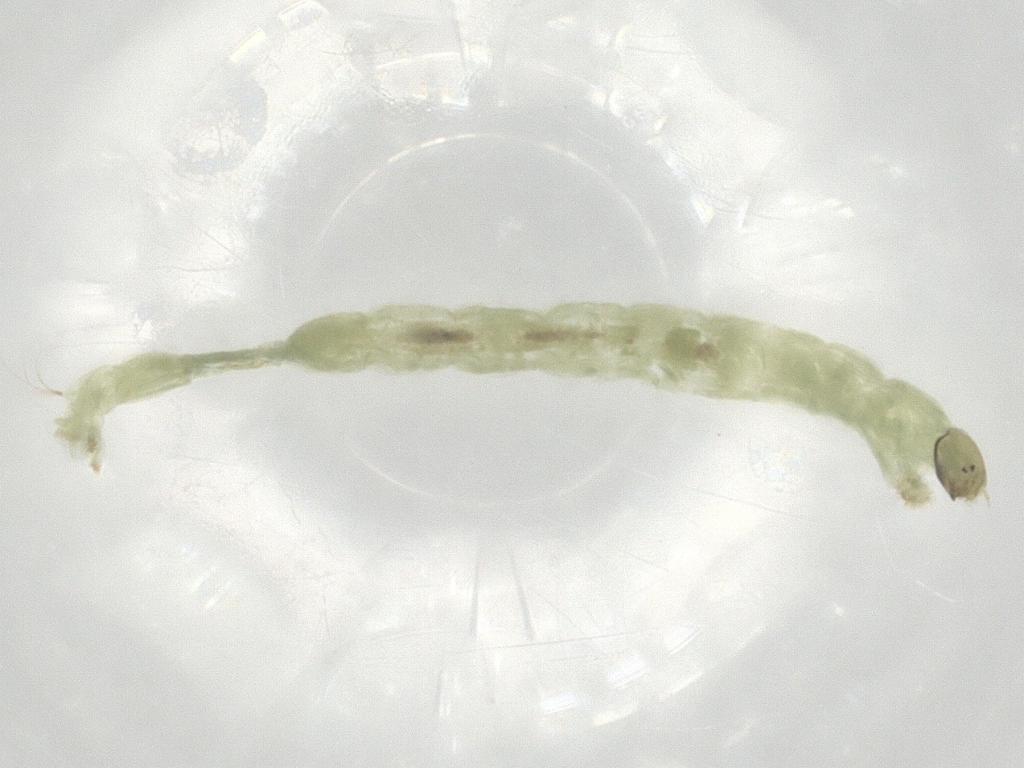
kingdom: Animalia
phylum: Arthropoda
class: Insecta
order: Diptera
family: Chironomidae
